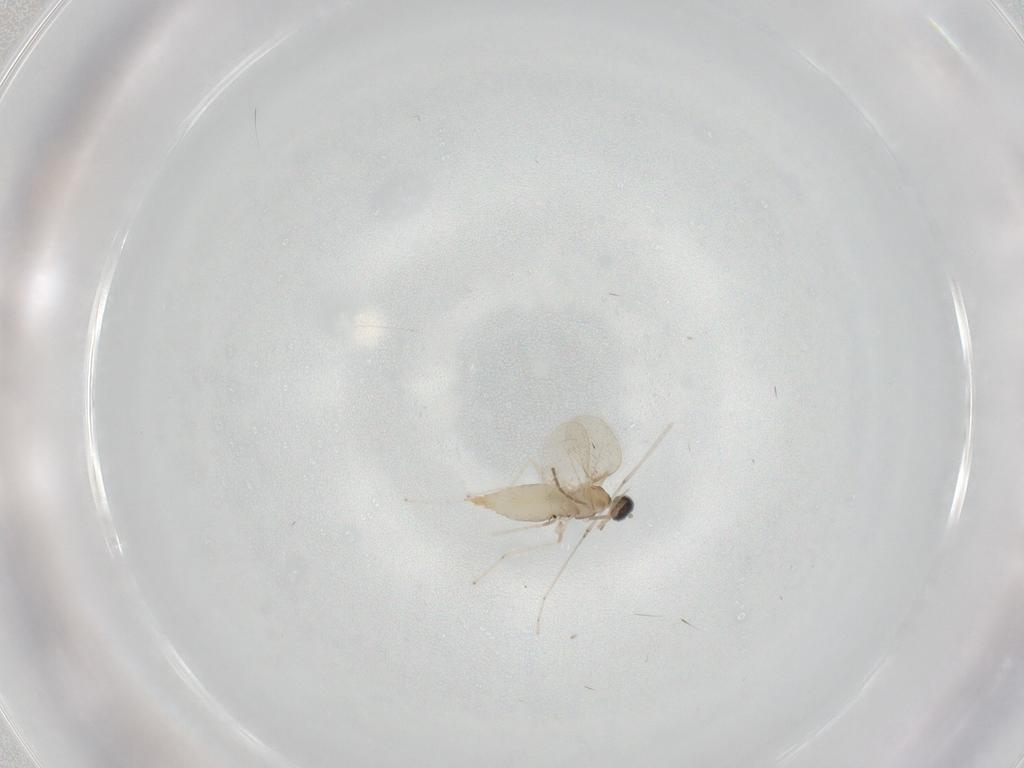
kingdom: Animalia
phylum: Arthropoda
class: Insecta
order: Diptera
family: Cecidomyiidae
